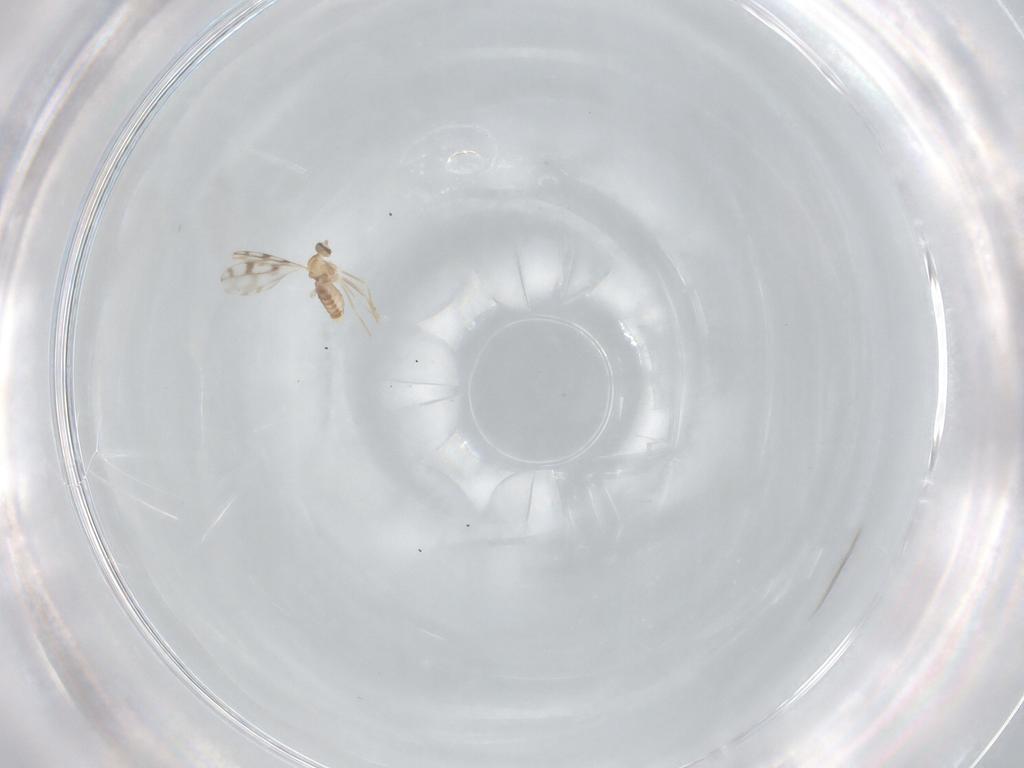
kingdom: Animalia
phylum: Arthropoda
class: Insecta
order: Diptera
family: Cecidomyiidae
